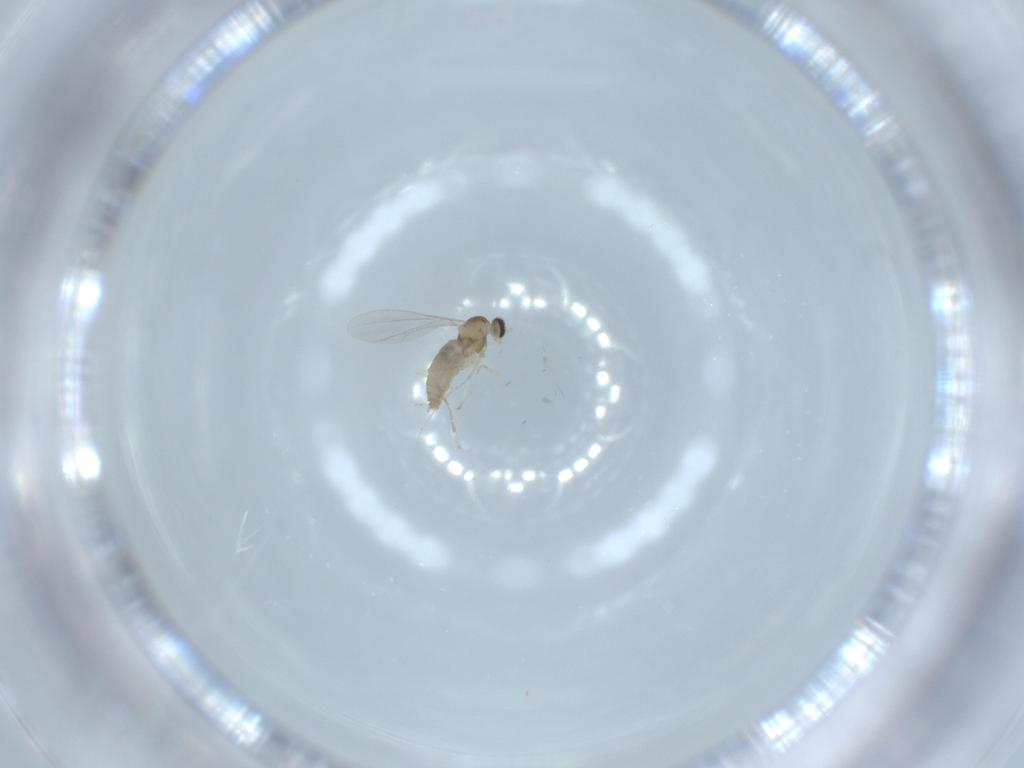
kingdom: Animalia
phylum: Arthropoda
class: Insecta
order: Diptera
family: Cecidomyiidae
